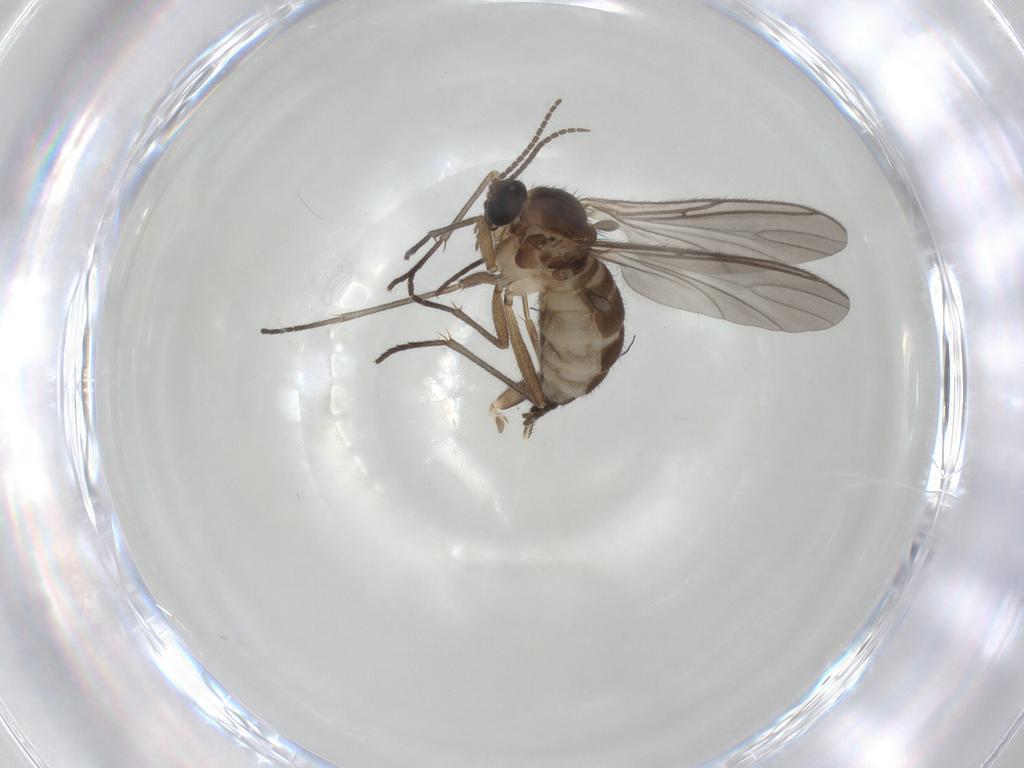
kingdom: Animalia
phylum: Arthropoda
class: Insecta
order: Diptera
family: Sciaridae
